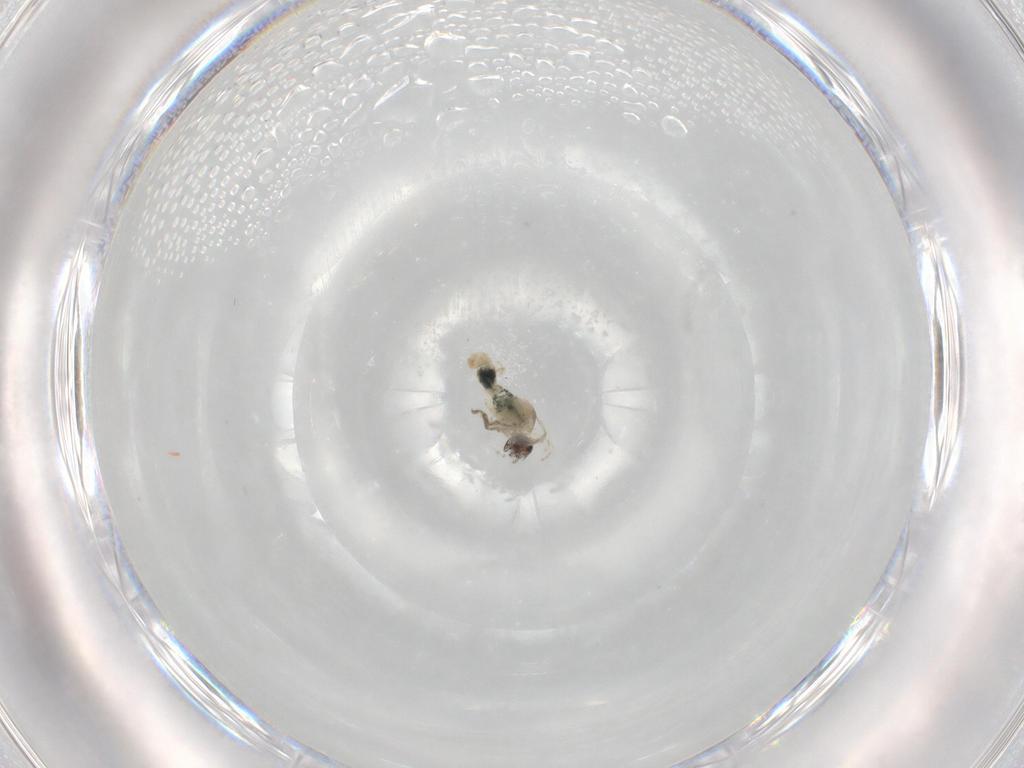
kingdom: Animalia
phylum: Arthropoda
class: Insecta
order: Diptera
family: Cecidomyiidae
